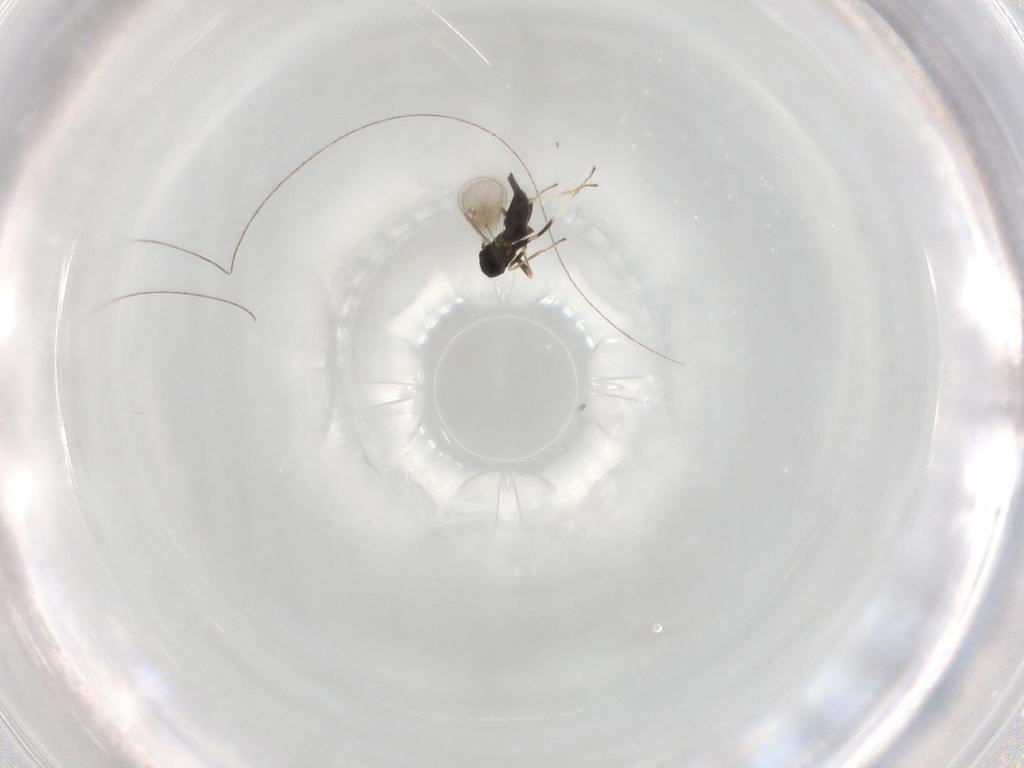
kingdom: Animalia
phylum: Arthropoda
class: Insecta
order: Hymenoptera
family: Eulophidae
